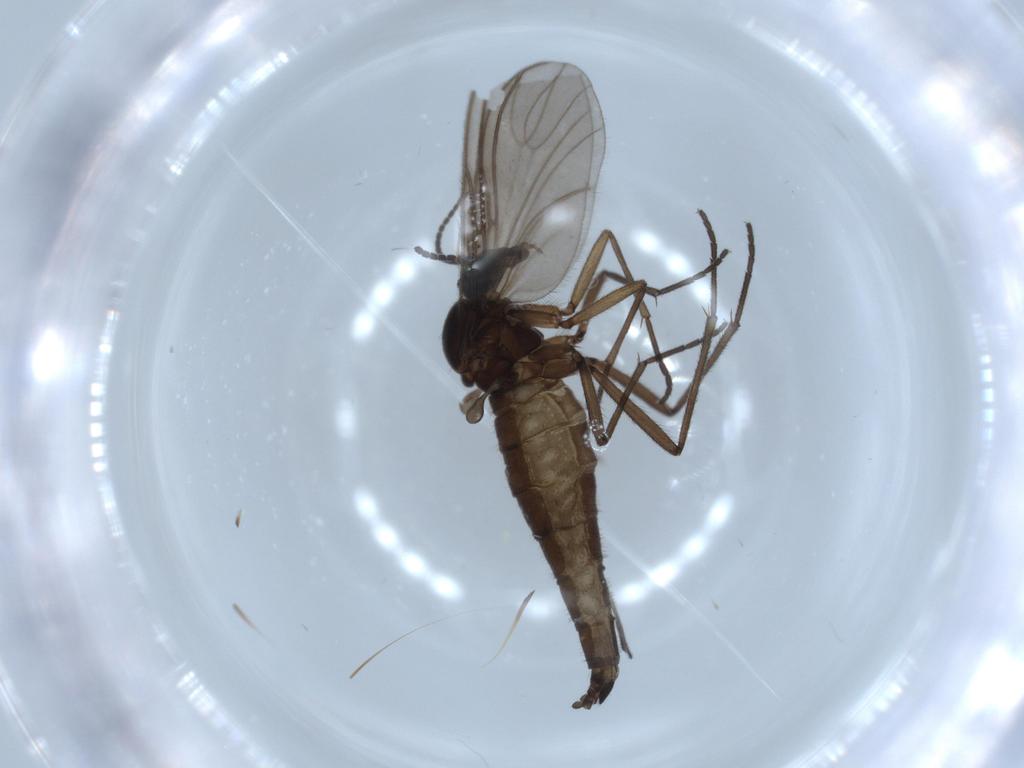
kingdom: Animalia
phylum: Arthropoda
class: Insecta
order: Diptera
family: Sciaridae
